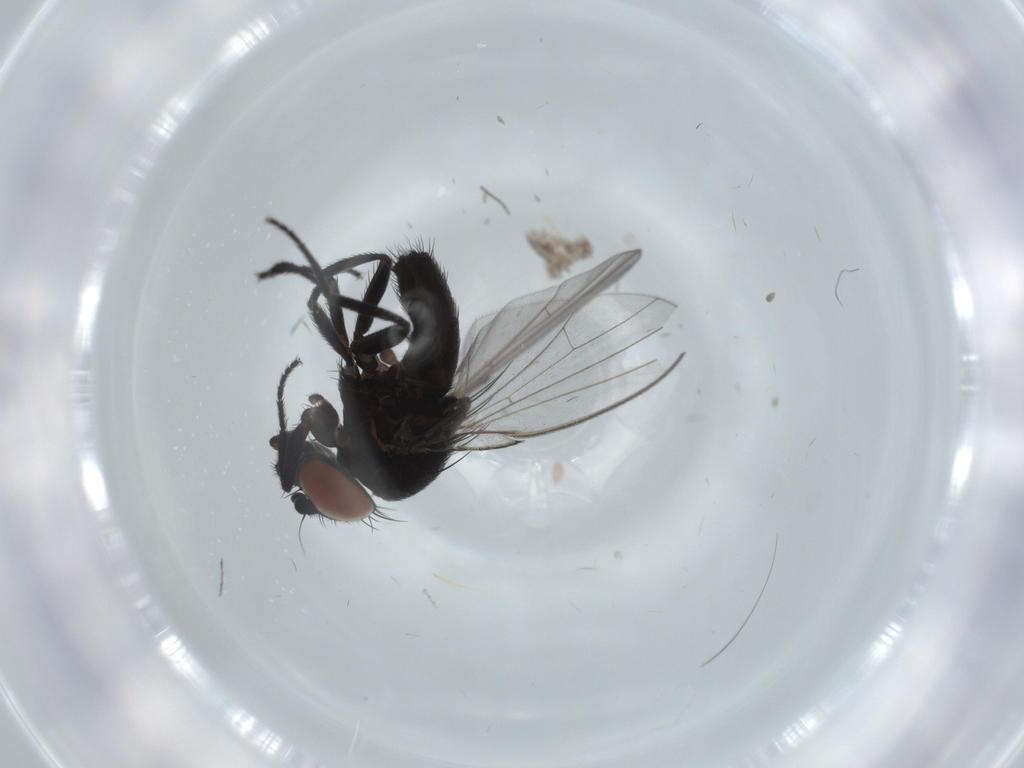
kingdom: Animalia
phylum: Arthropoda
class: Insecta
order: Diptera
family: Milichiidae
